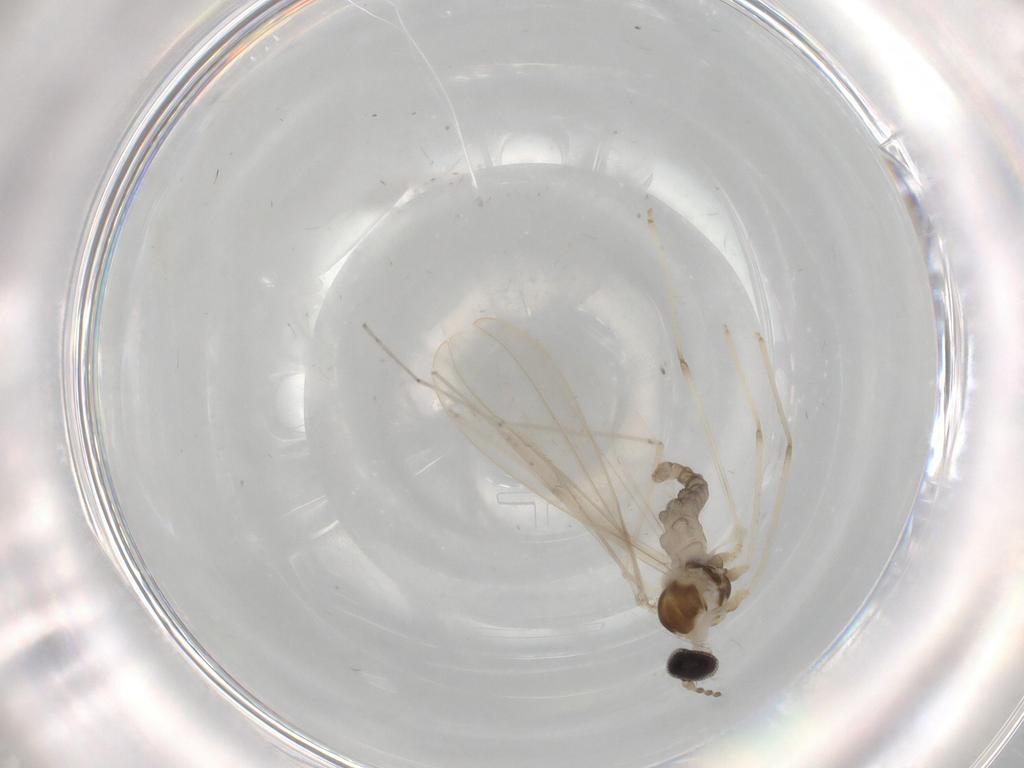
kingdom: Animalia
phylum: Arthropoda
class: Insecta
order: Diptera
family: Cecidomyiidae
